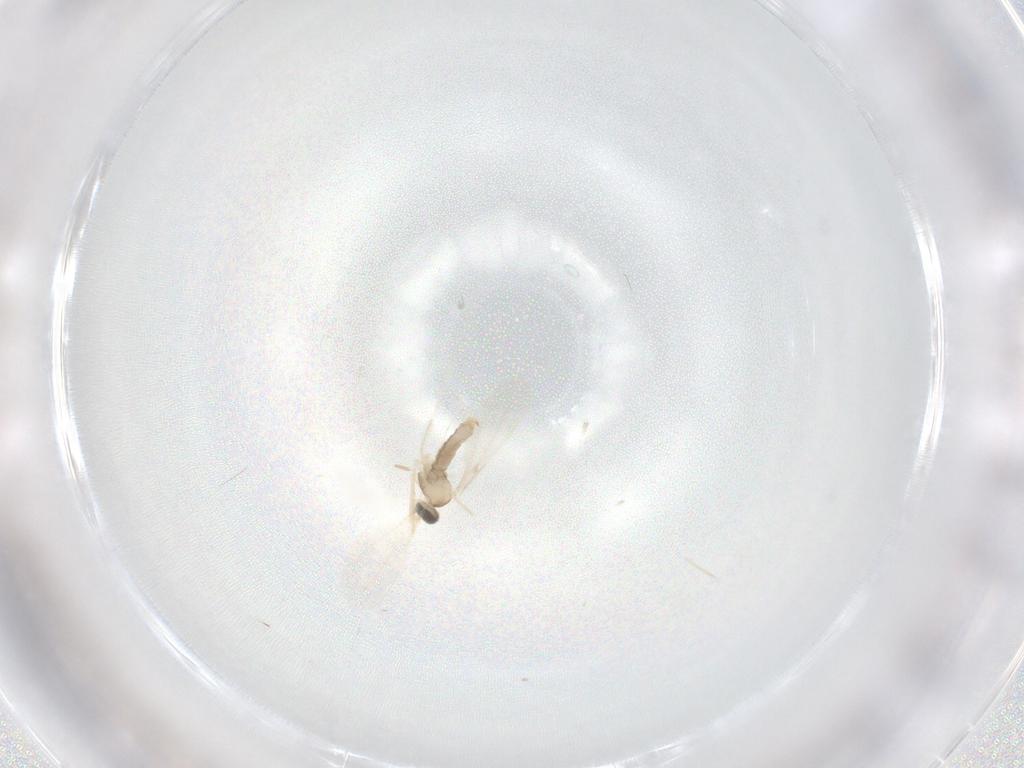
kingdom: Animalia
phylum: Arthropoda
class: Insecta
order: Diptera
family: Cecidomyiidae
